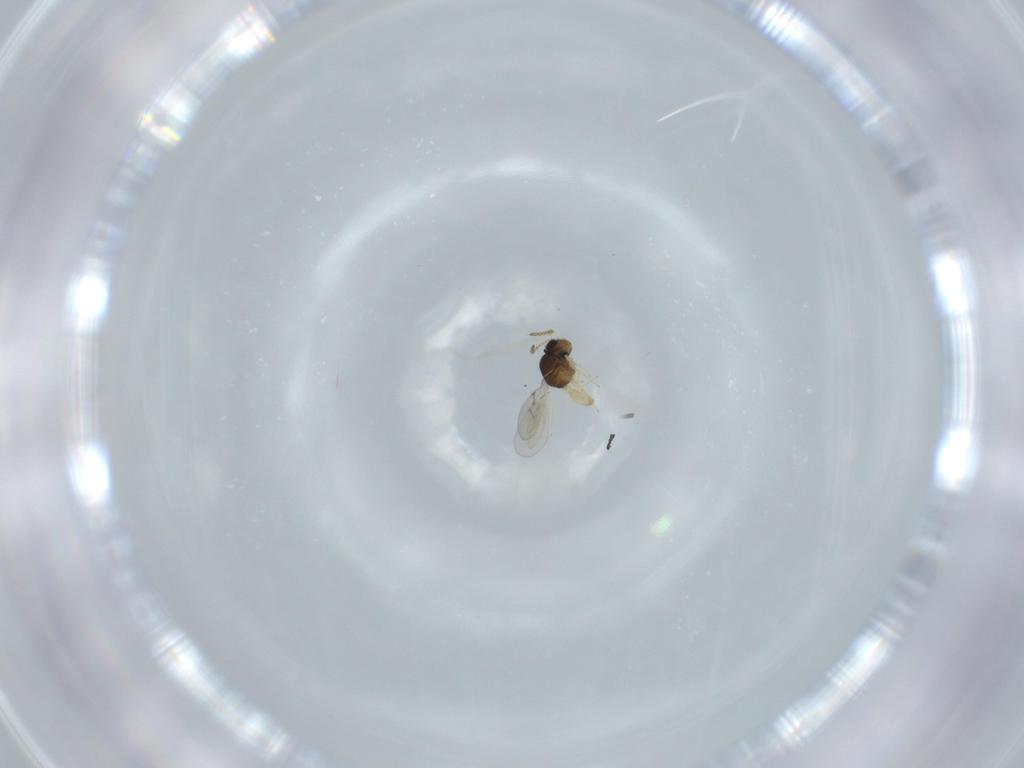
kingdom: Animalia
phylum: Arthropoda
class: Insecta
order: Hymenoptera
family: Scelionidae
